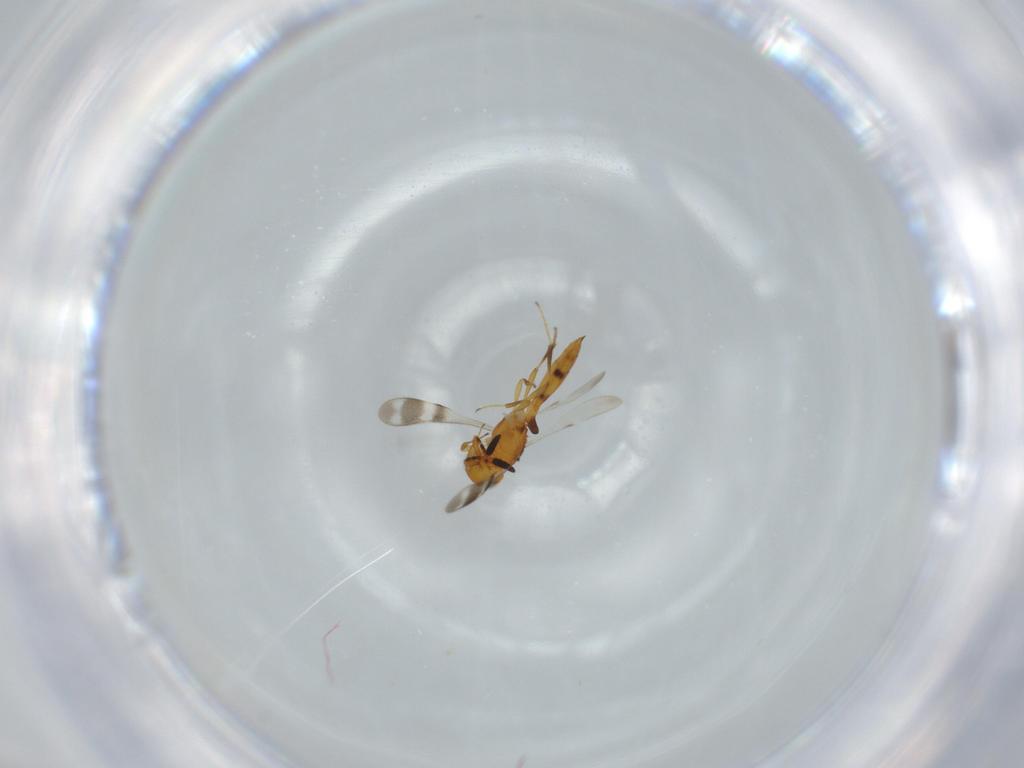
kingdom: Animalia
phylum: Arthropoda
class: Insecta
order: Hymenoptera
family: Scelionidae
